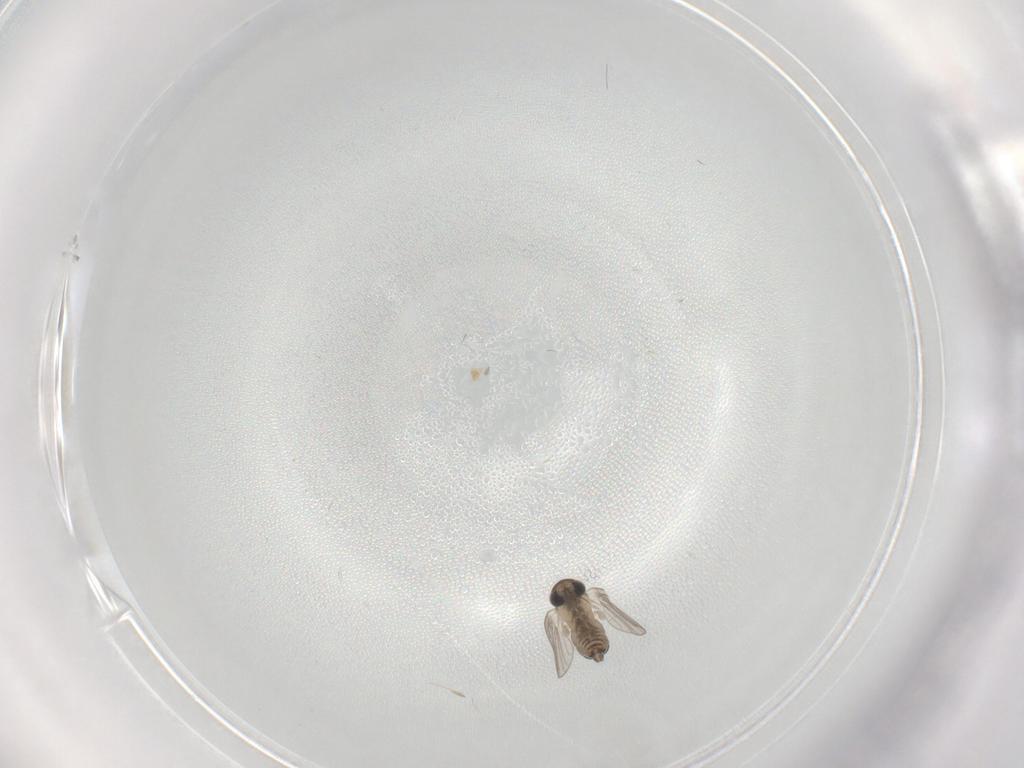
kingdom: Animalia
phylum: Arthropoda
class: Insecta
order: Diptera
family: Psychodidae
